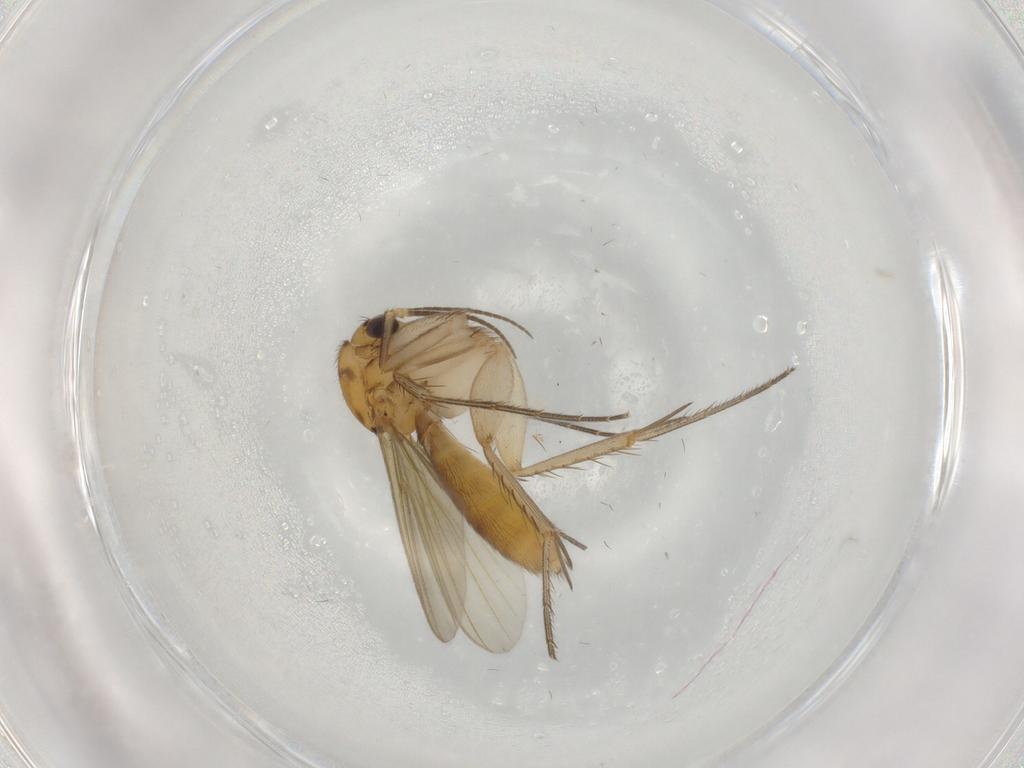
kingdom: Animalia
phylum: Arthropoda
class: Insecta
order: Diptera
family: Mycetophilidae
